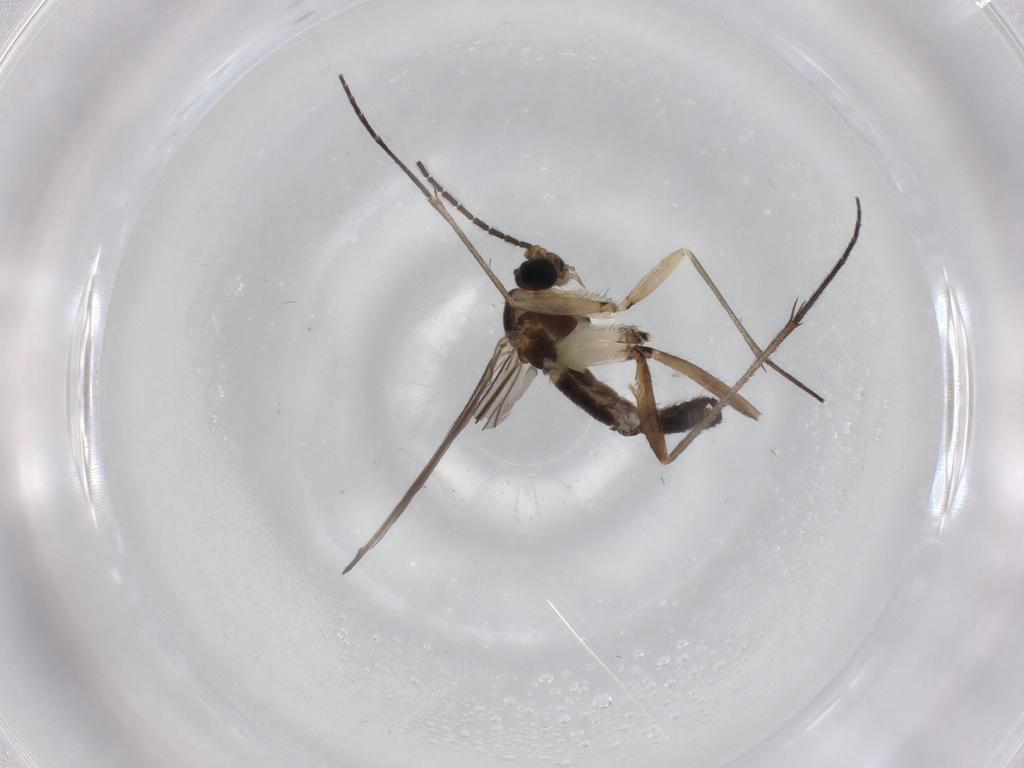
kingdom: Animalia
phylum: Arthropoda
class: Insecta
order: Diptera
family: Sciaridae
